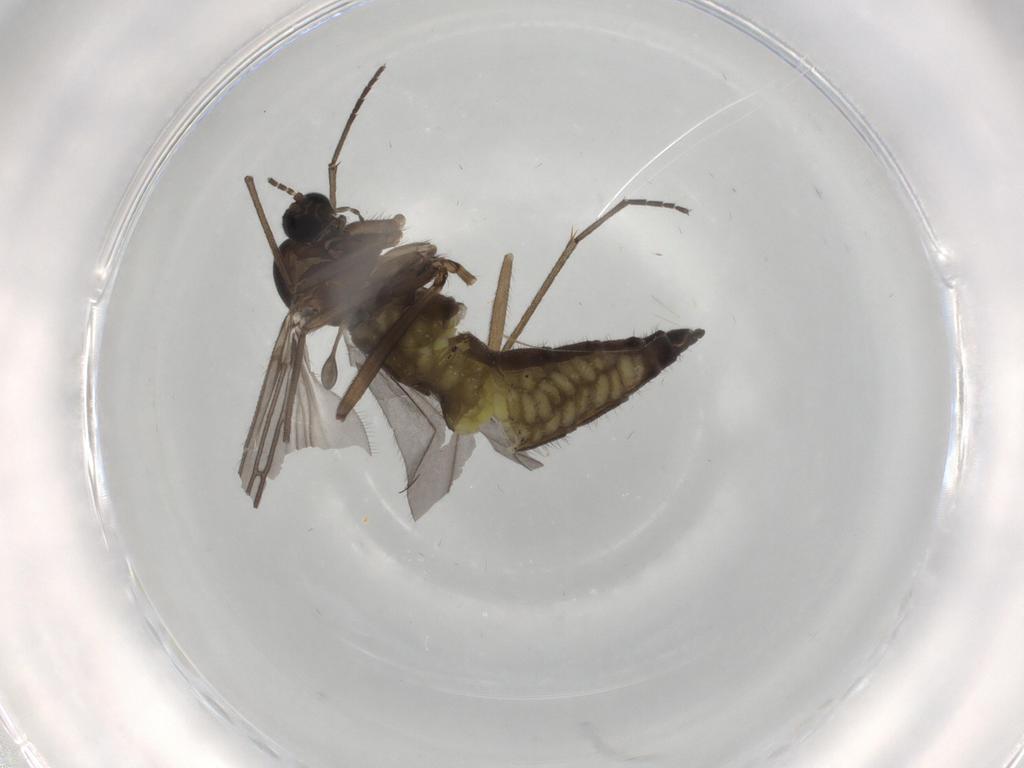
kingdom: Animalia
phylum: Arthropoda
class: Insecta
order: Diptera
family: Sciaridae
